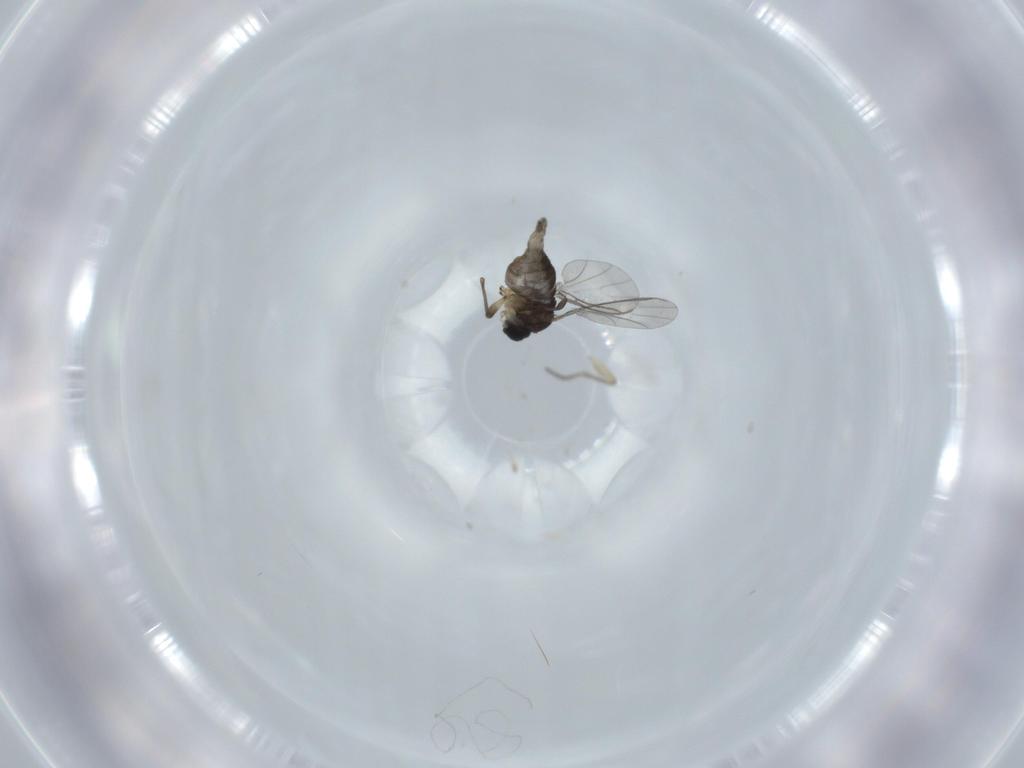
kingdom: Animalia
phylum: Arthropoda
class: Insecta
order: Diptera
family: Sciaridae
